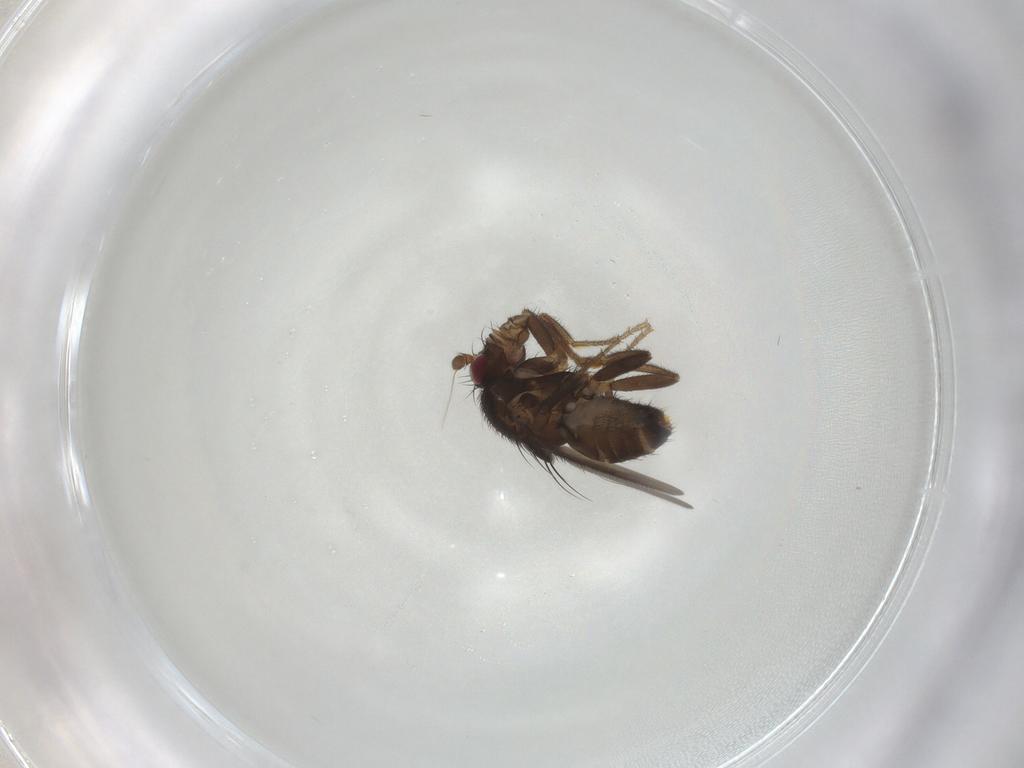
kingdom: Animalia
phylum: Arthropoda
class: Insecta
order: Diptera
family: Sphaeroceridae
